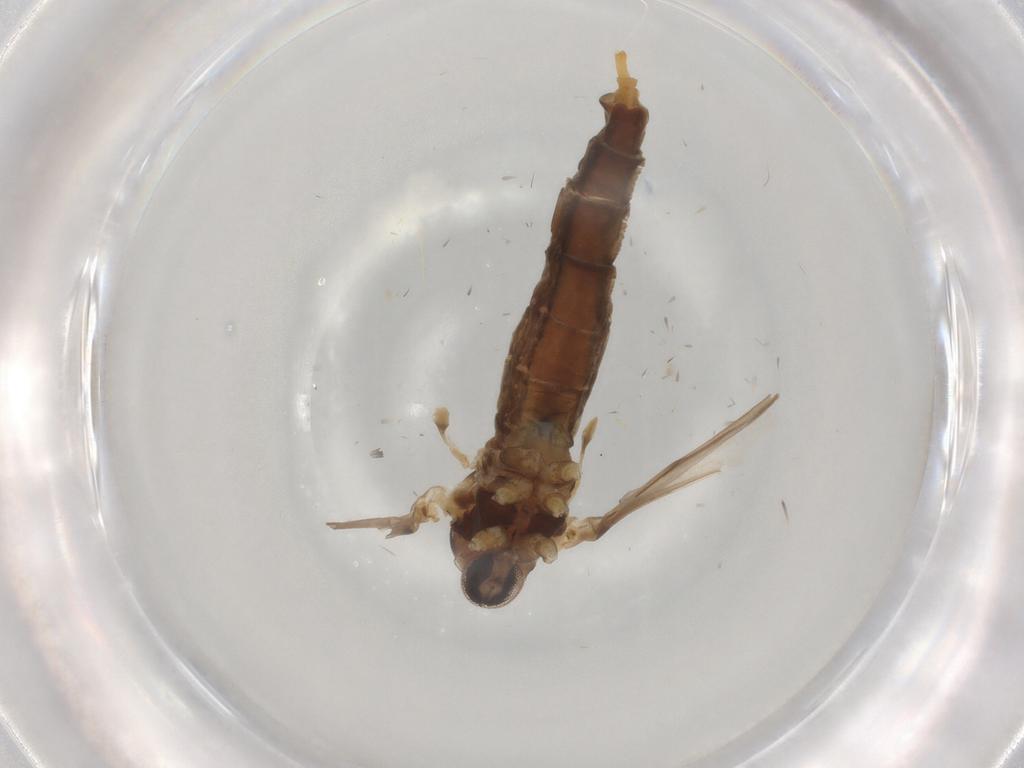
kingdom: Animalia
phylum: Arthropoda
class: Insecta
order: Diptera
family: Cecidomyiidae
